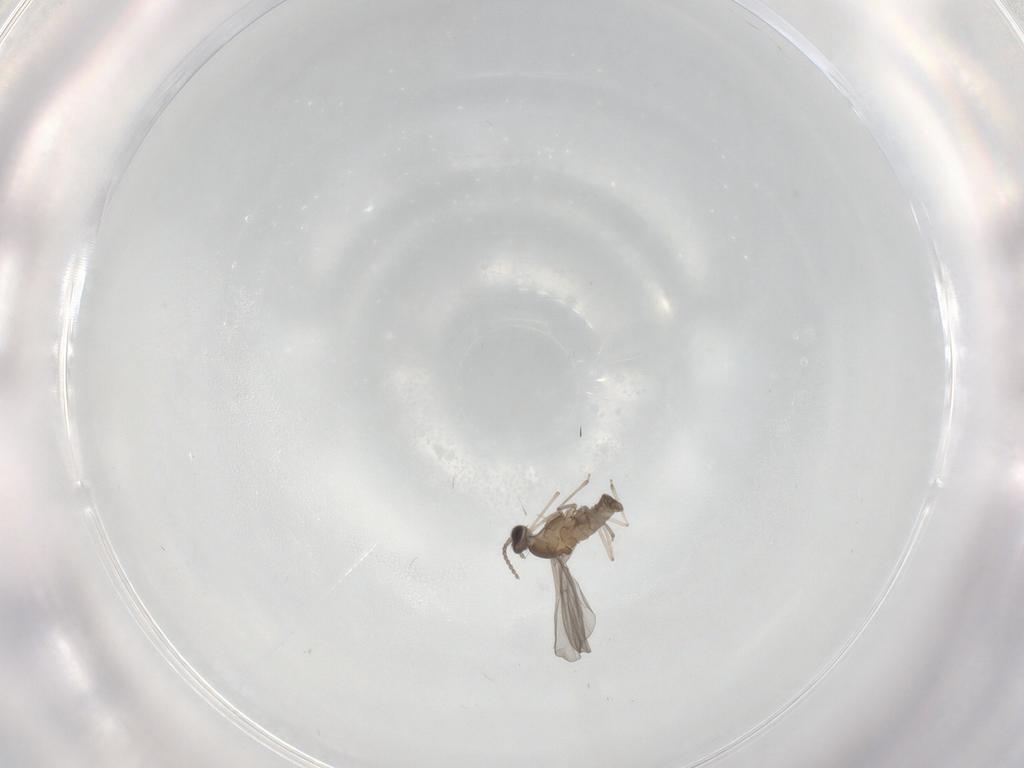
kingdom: Animalia
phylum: Arthropoda
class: Insecta
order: Diptera
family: Cecidomyiidae
